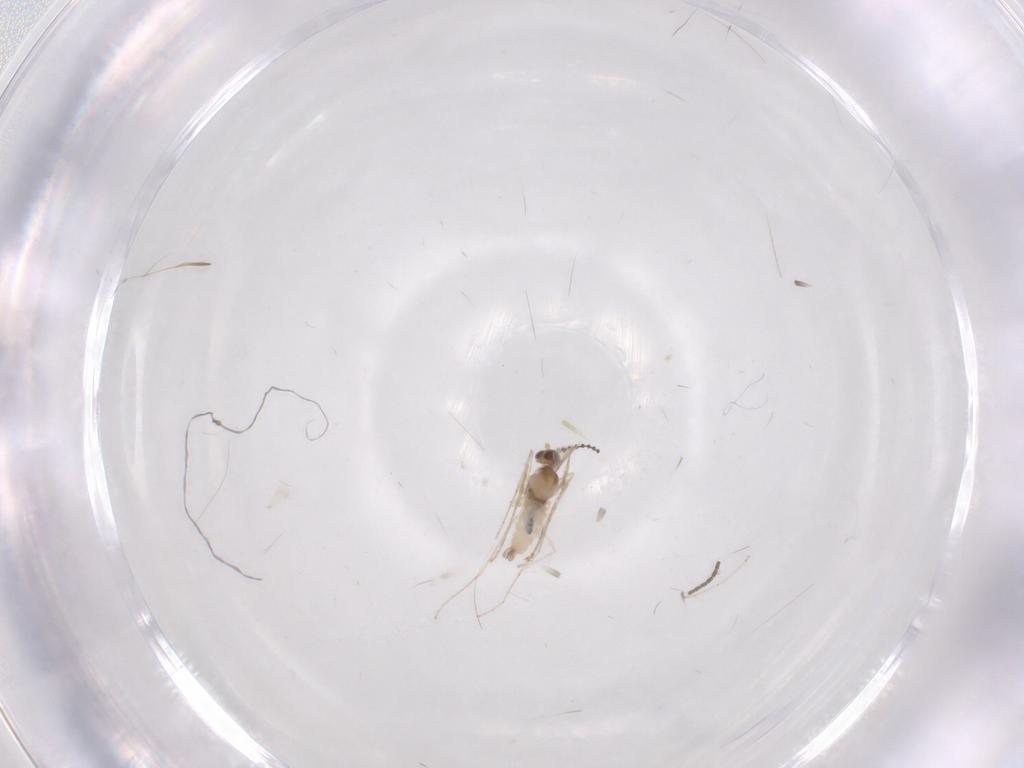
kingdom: Animalia
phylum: Arthropoda
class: Insecta
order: Diptera
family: Cecidomyiidae
